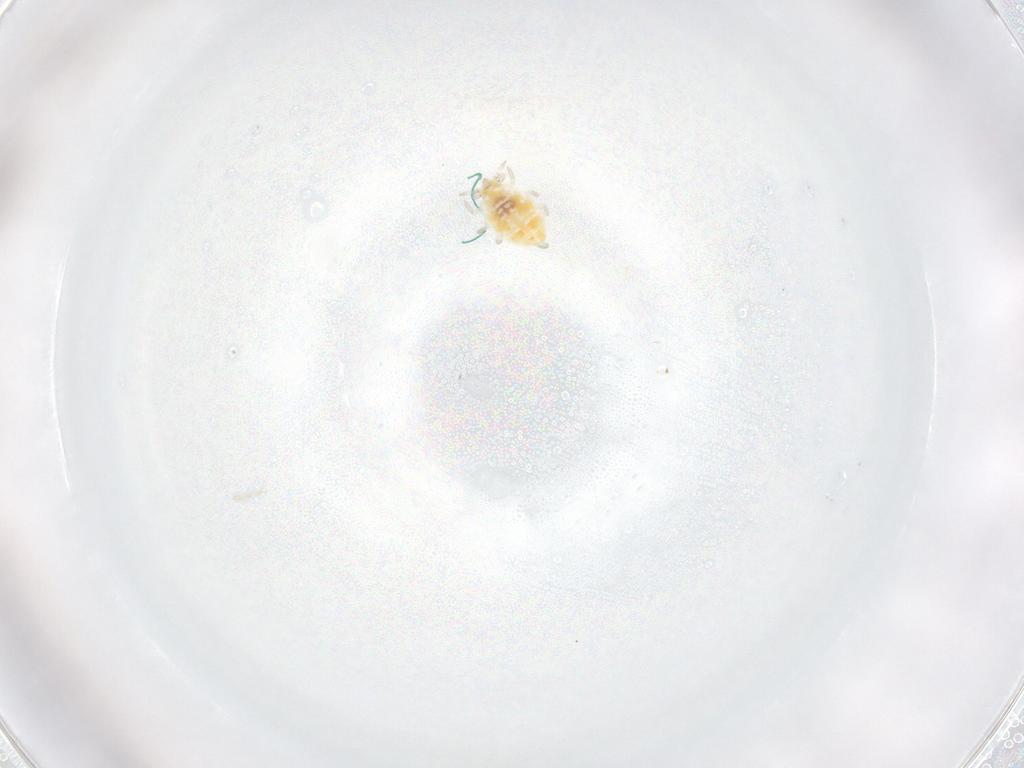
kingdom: Animalia
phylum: Arthropoda
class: Insecta
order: Neuroptera
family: Coniopterygidae
